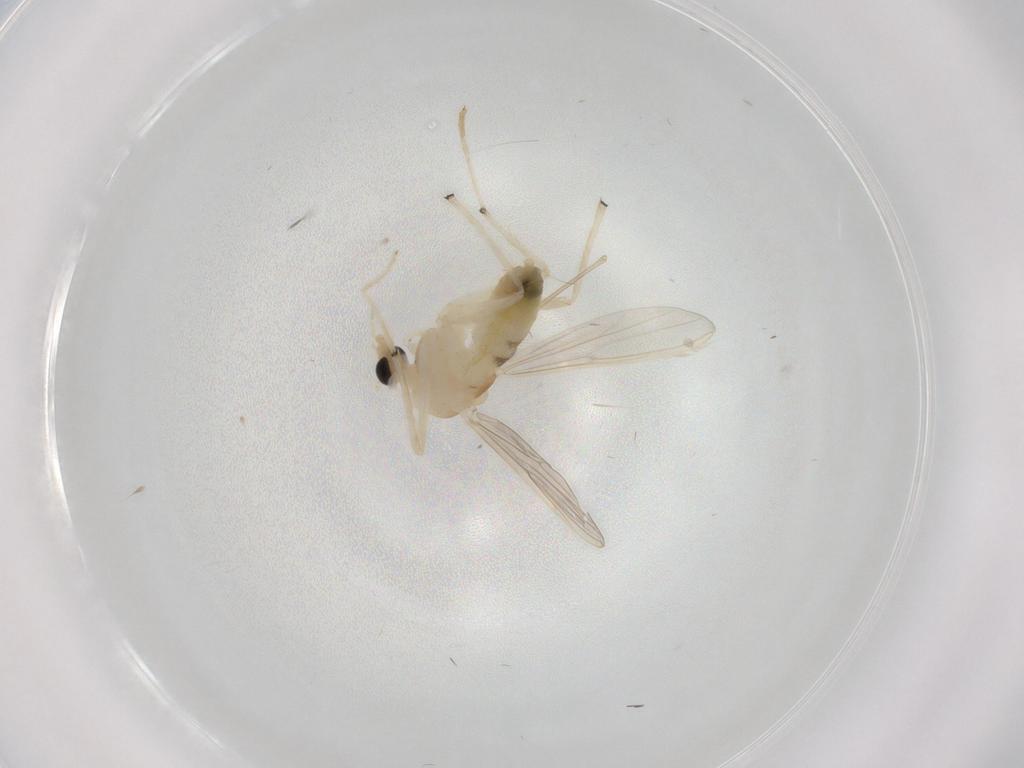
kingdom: Animalia
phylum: Arthropoda
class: Insecta
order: Diptera
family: Chironomidae
